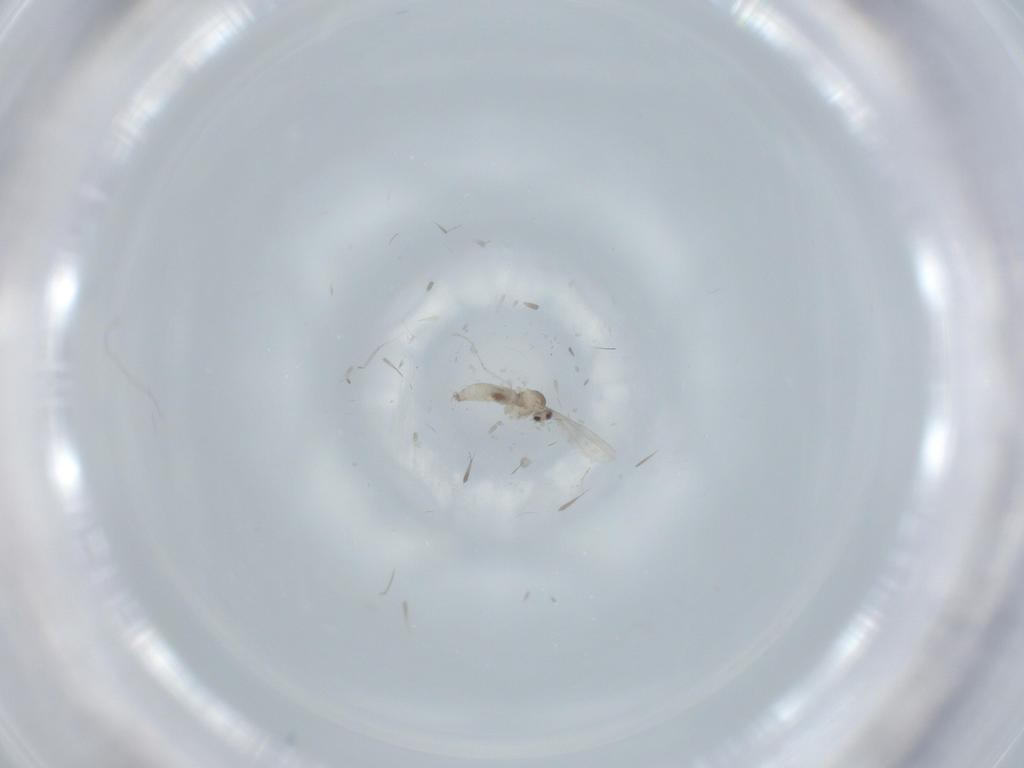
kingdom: Animalia
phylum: Arthropoda
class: Insecta
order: Diptera
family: Cecidomyiidae
